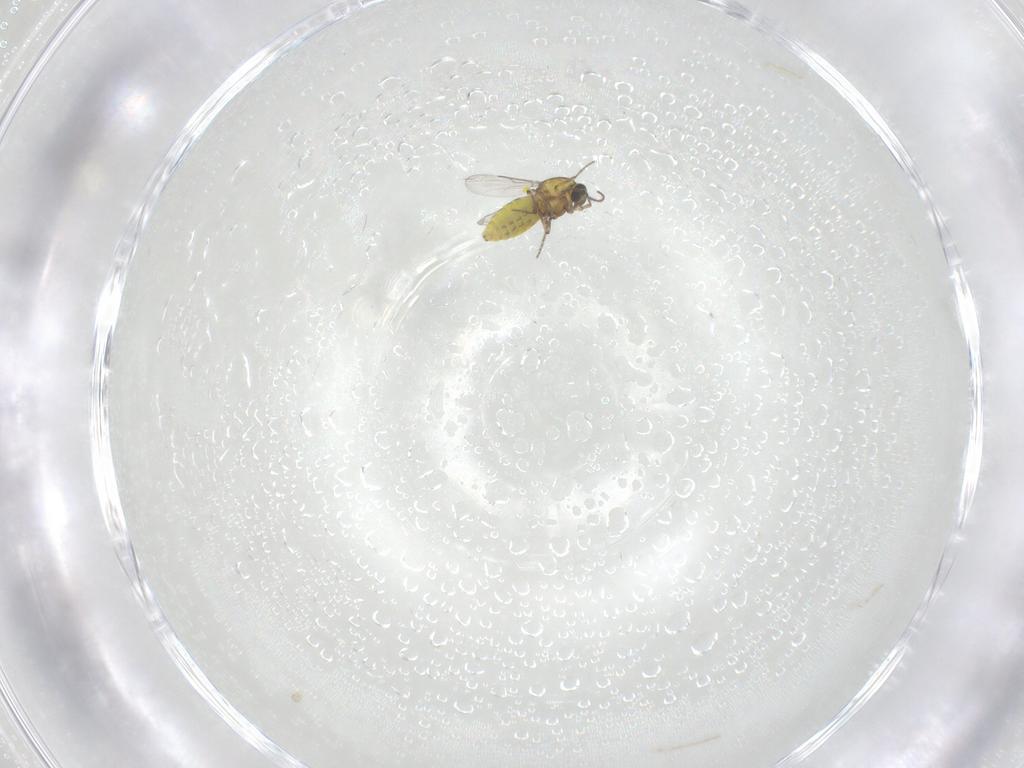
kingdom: Animalia
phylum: Arthropoda
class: Insecta
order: Diptera
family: Ceratopogonidae
